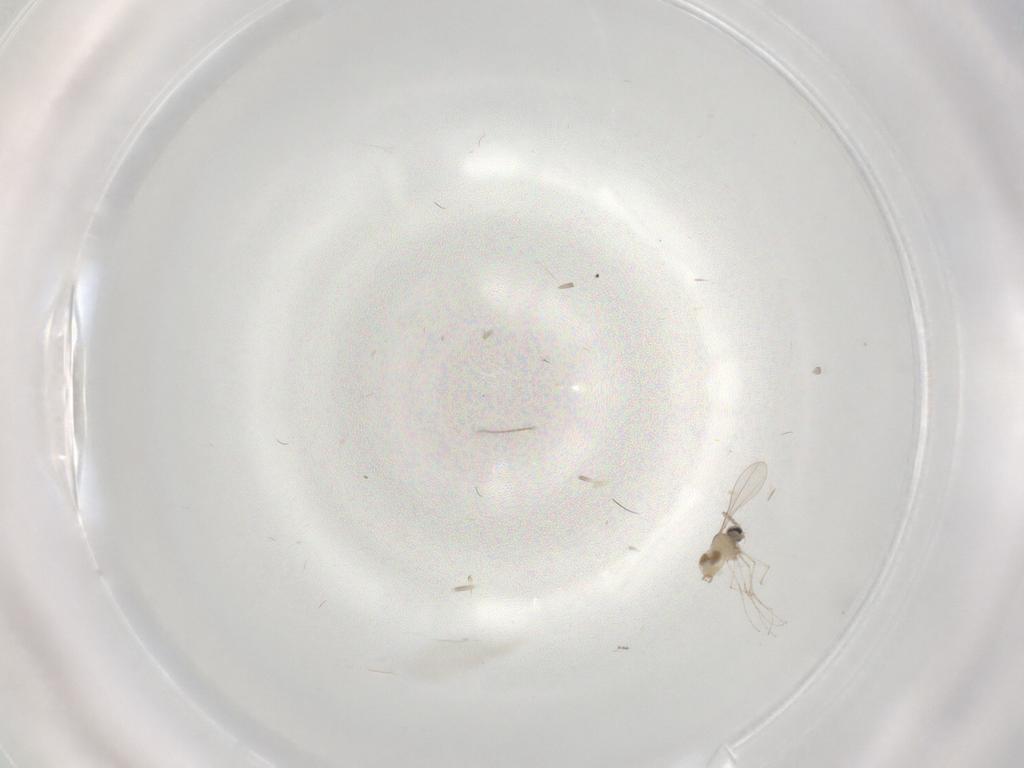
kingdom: Animalia
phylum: Arthropoda
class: Insecta
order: Diptera
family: Cecidomyiidae
